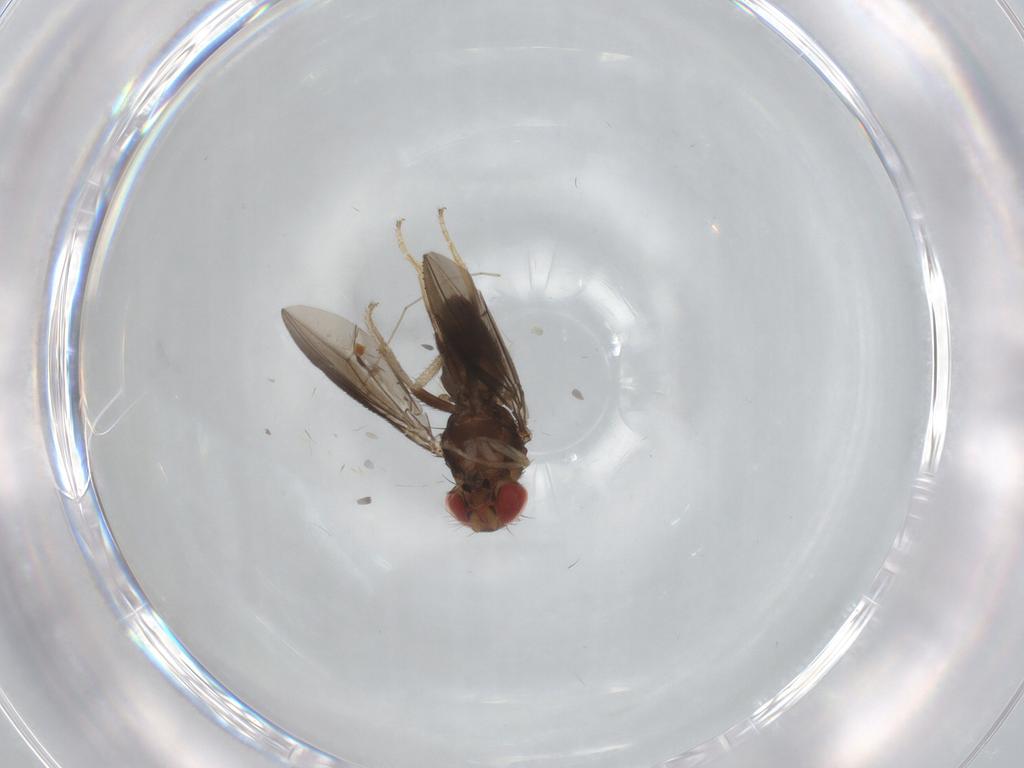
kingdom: Animalia
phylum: Arthropoda
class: Insecta
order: Diptera
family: Drosophilidae
